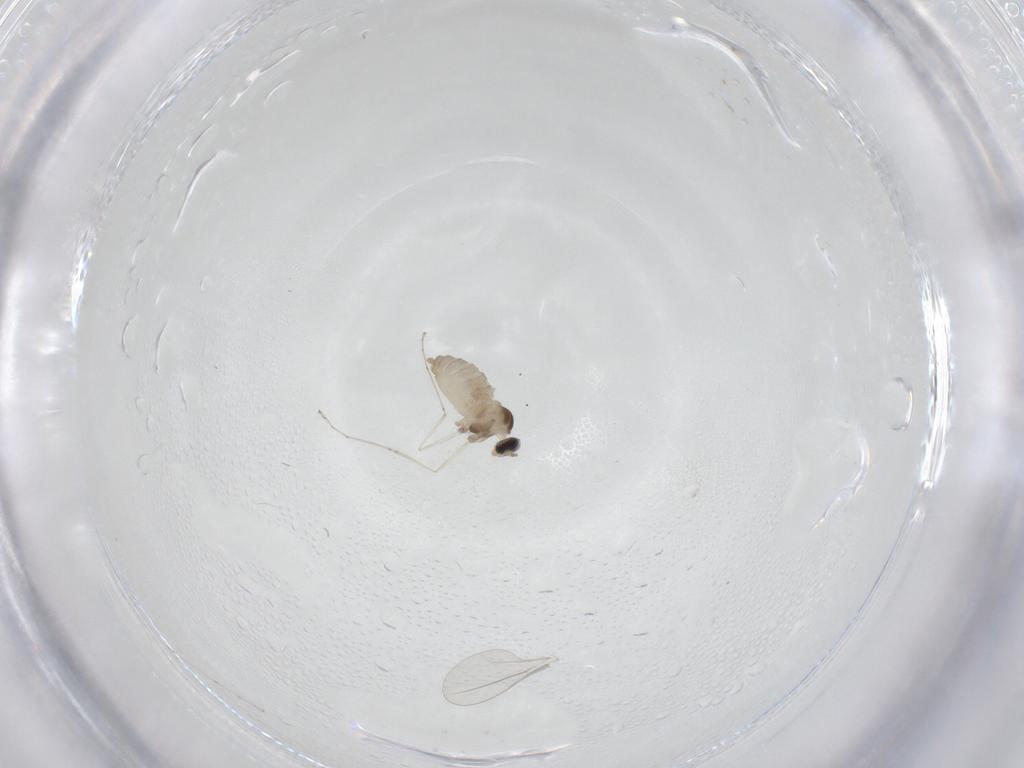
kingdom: Animalia
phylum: Arthropoda
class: Insecta
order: Diptera
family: Cecidomyiidae
